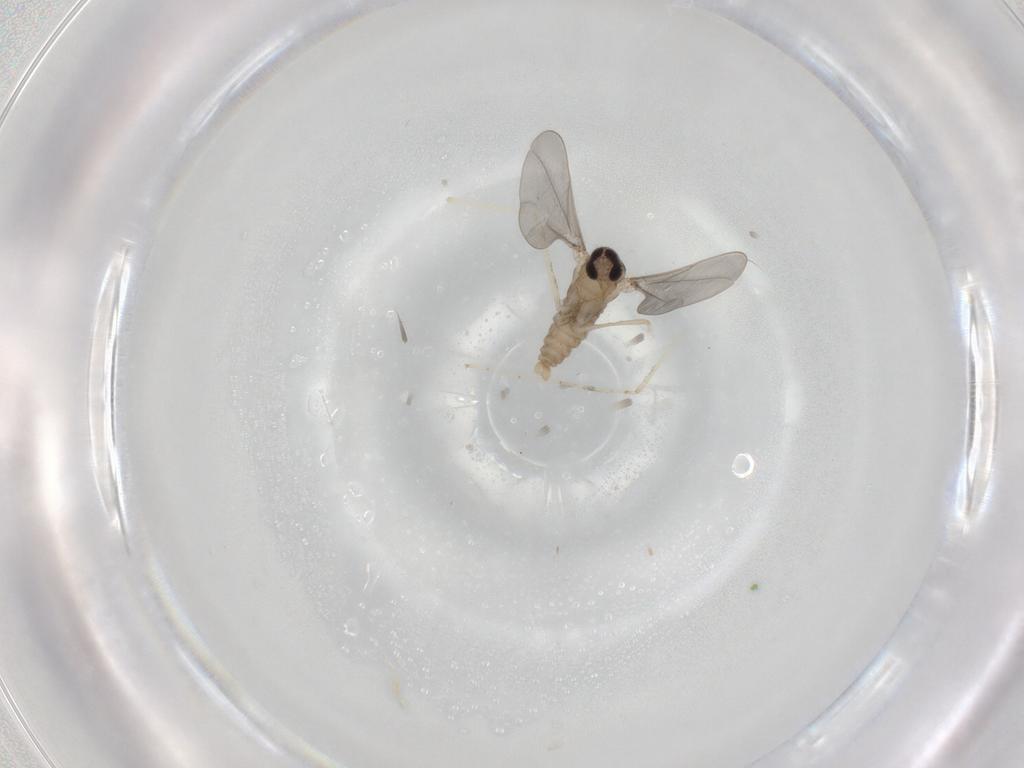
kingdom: Animalia
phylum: Arthropoda
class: Insecta
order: Diptera
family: Cecidomyiidae
